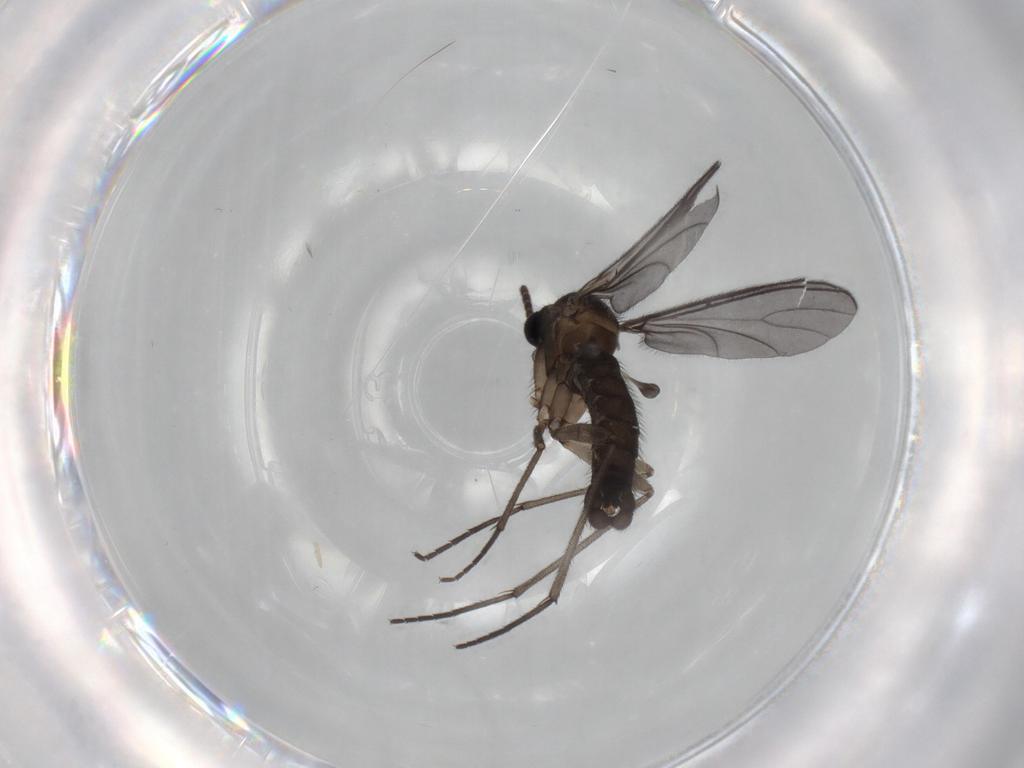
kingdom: Animalia
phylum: Arthropoda
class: Insecta
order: Diptera
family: Sciaridae
